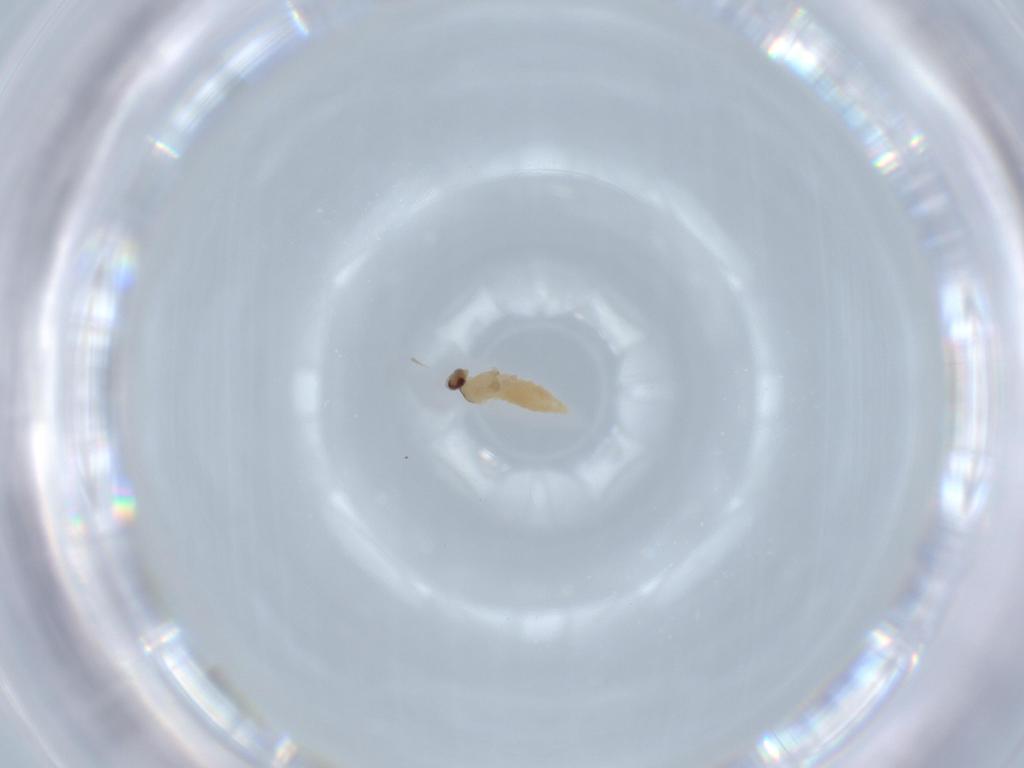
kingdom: Animalia
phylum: Arthropoda
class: Insecta
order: Diptera
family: Cecidomyiidae
